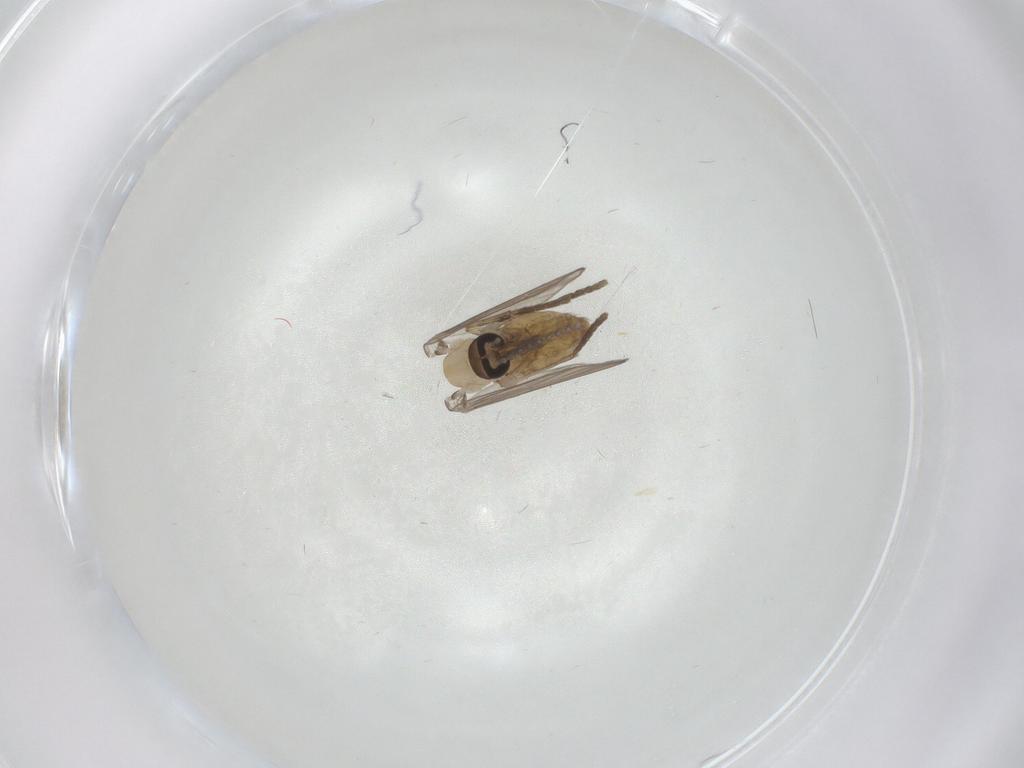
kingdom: Animalia
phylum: Arthropoda
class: Insecta
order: Diptera
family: Psychodidae
